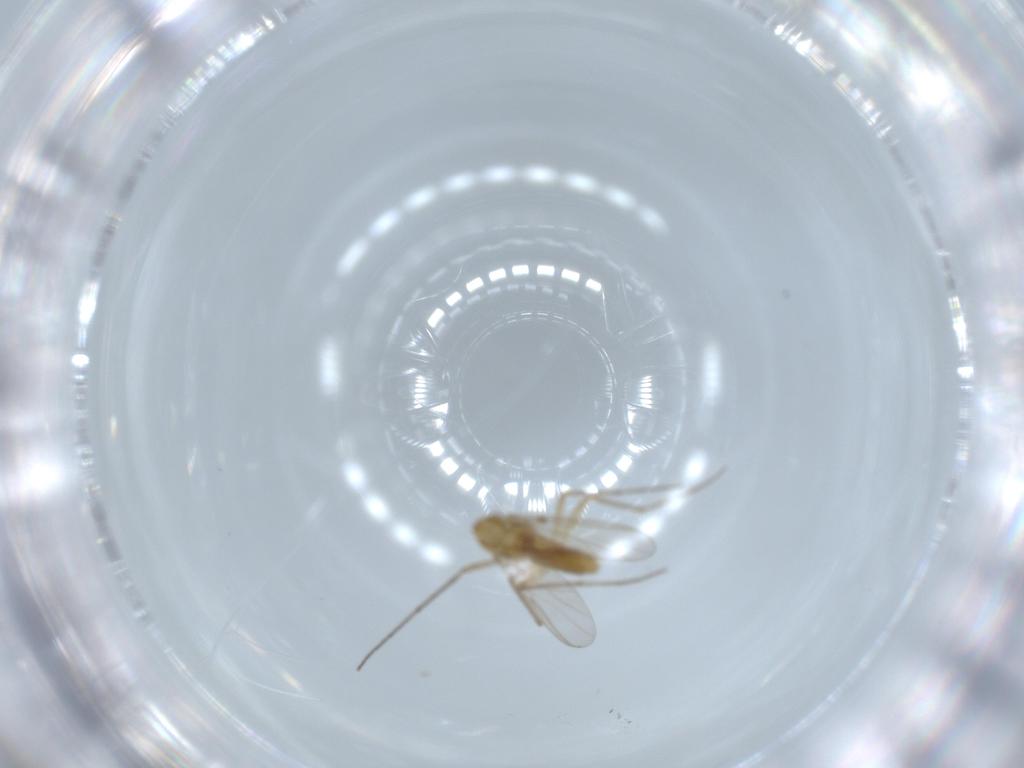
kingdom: Animalia
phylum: Arthropoda
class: Insecta
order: Diptera
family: Chironomidae
